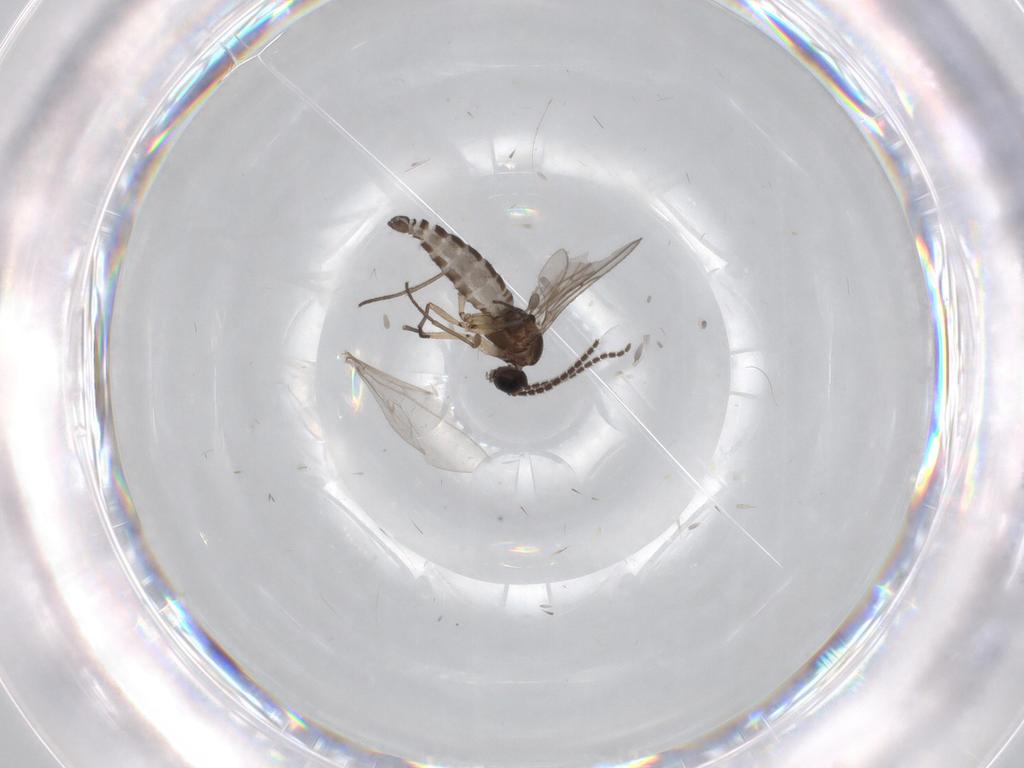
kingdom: Animalia
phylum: Arthropoda
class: Insecta
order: Diptera
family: Sciaridae
